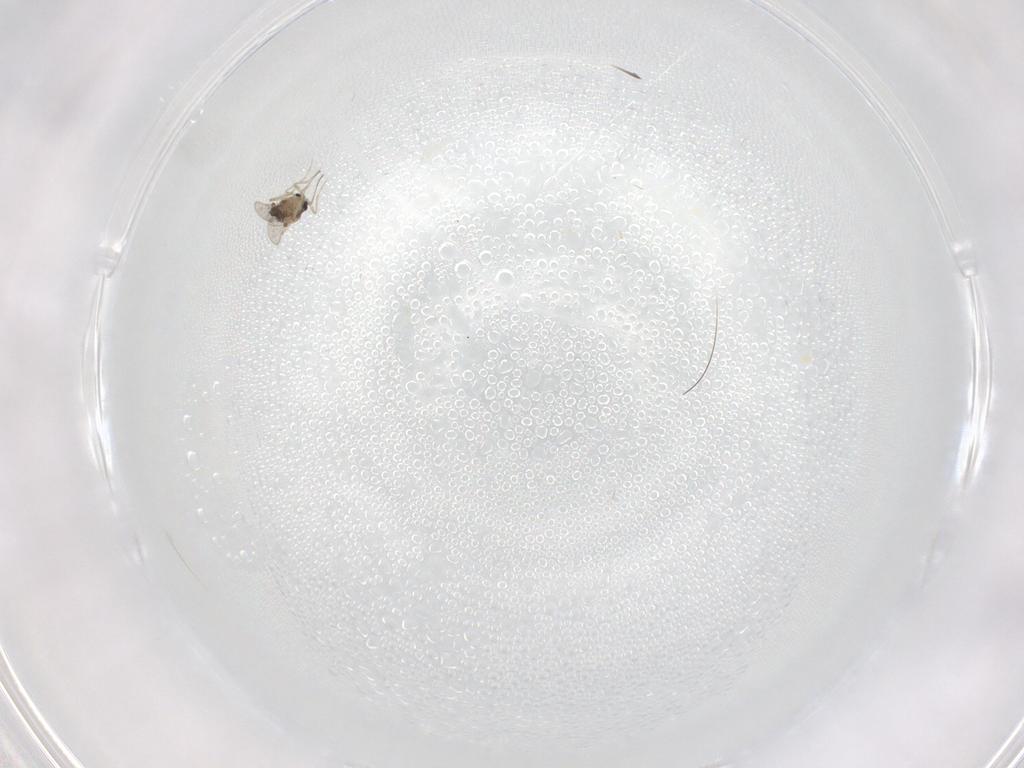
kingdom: Animalia
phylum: Arthropoda
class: Insecta
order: Diptera
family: Ceratopogonidae
